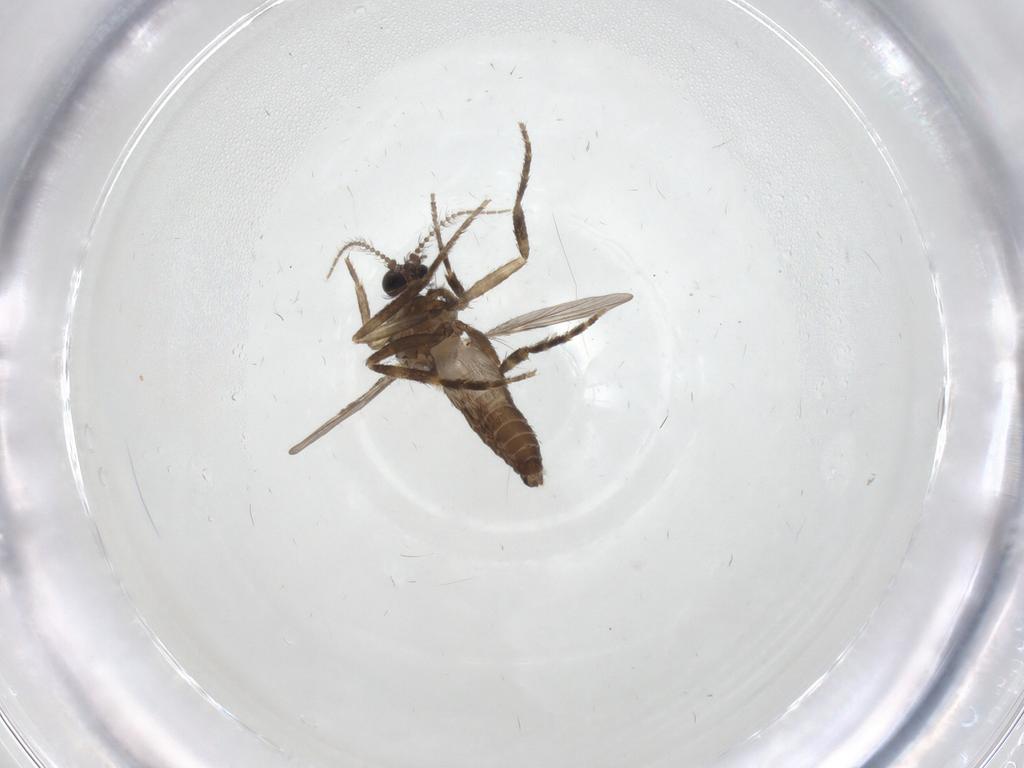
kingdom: Animalia
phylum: Arthropoda
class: Insecta
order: Diptera
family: Ceratopogonidae
